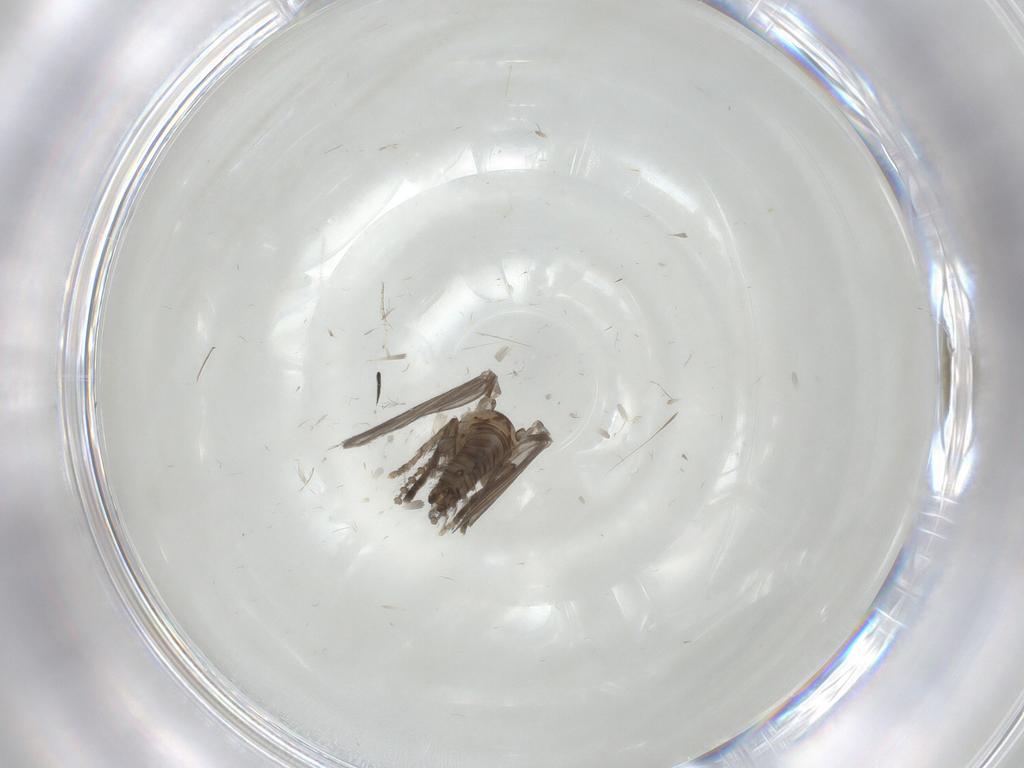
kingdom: Animalia
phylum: Arthropoda
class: Insecta
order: Diptera
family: Psychodidae
